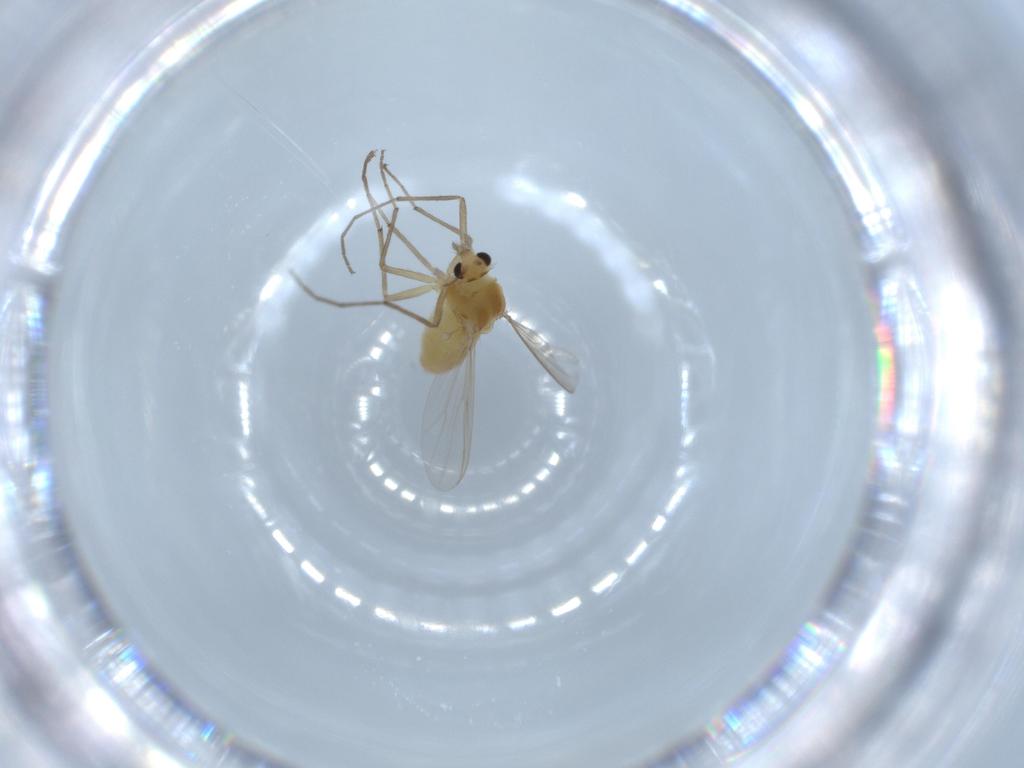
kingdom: Animalia
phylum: Arthropoda
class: Insecta
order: Diptera
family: Chironomidae
